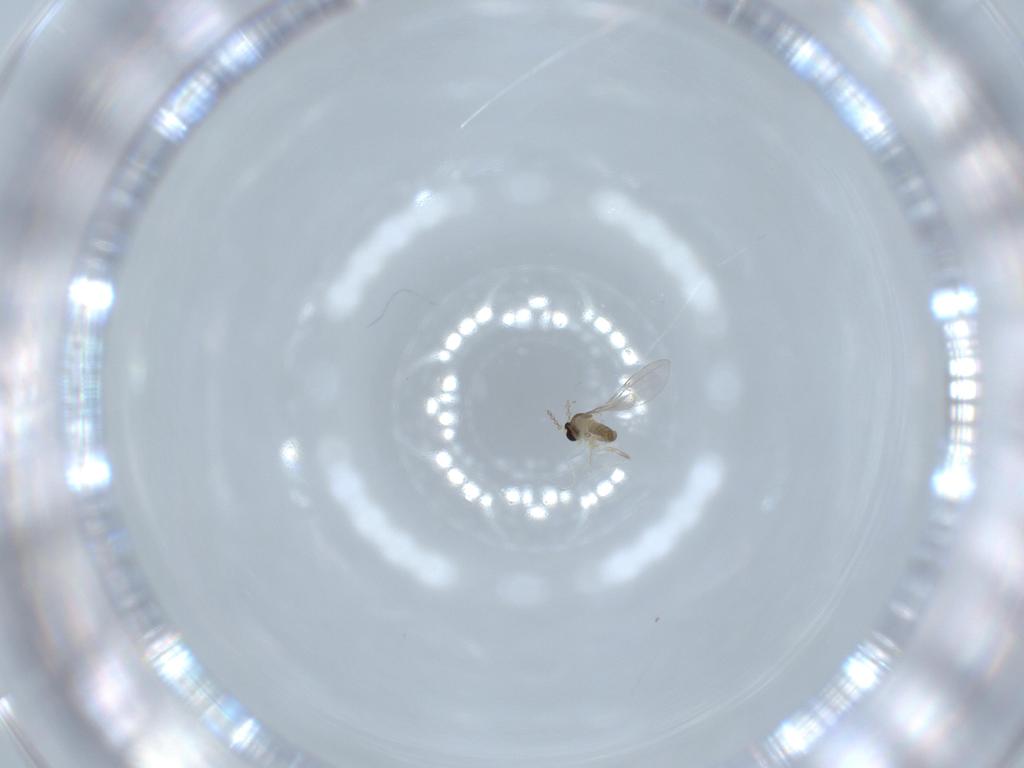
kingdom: Animalia
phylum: Arthropoda
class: Insecta
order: Diptera
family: Cecidomyiidae
